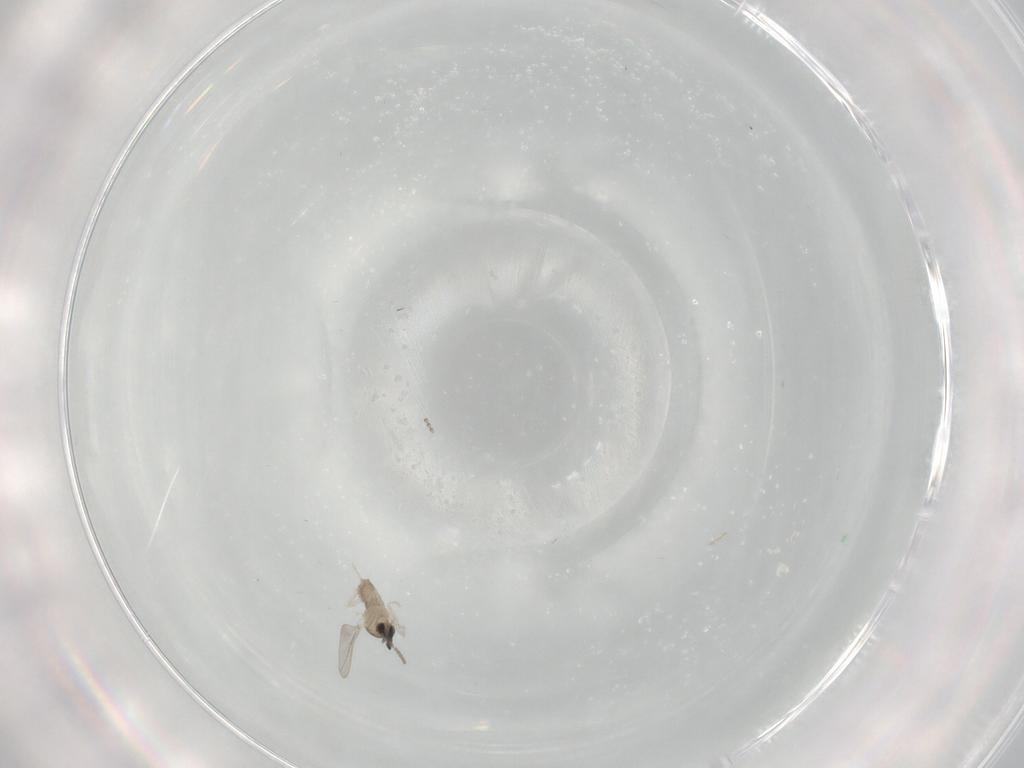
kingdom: Animalia
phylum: Arthropoda
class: Insecta
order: Diptera
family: Cecidomyiidae
